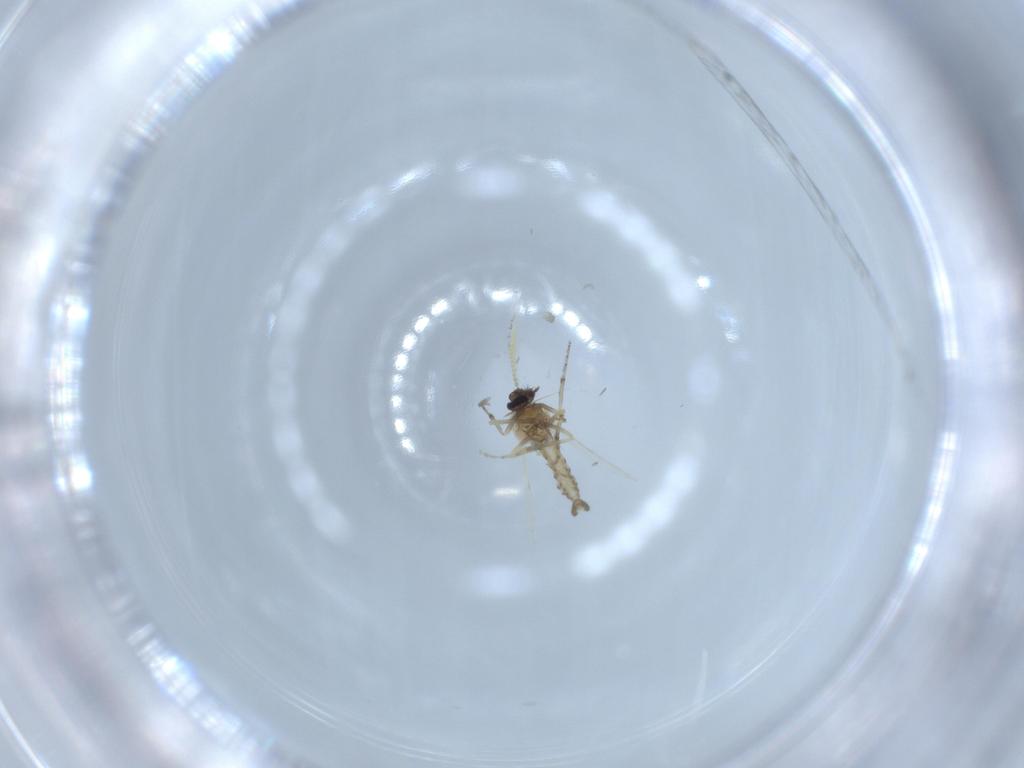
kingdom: Animalia
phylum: Arthropoda
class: Insecta
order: Diptera
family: Ceratopogonidae
